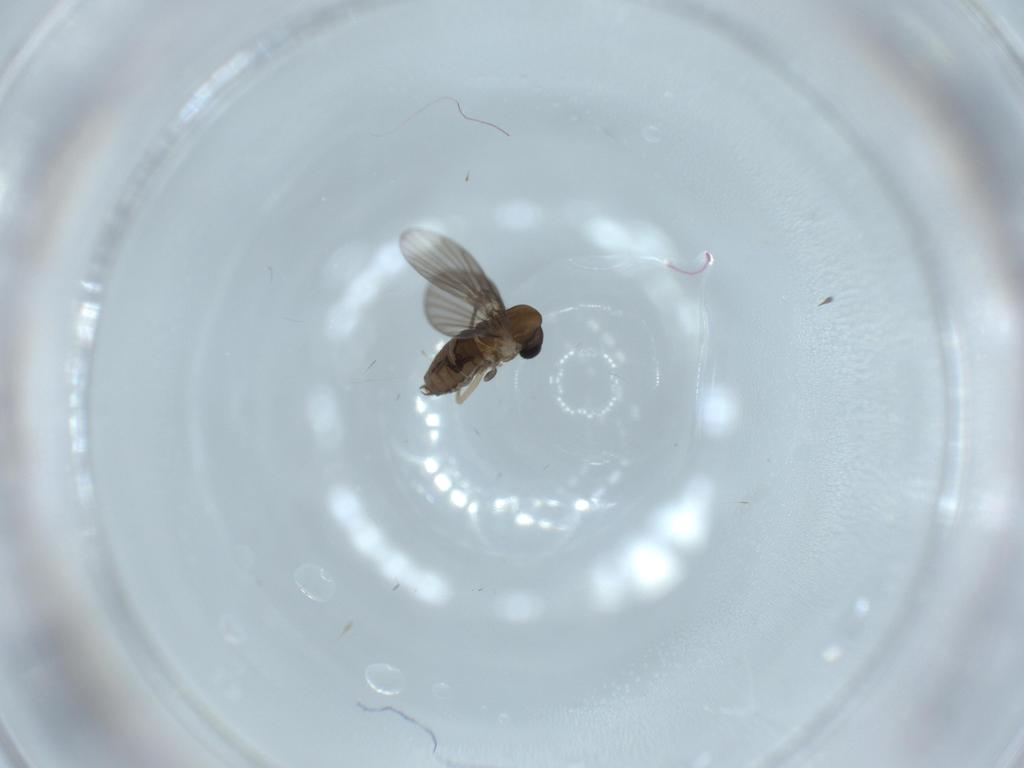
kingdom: Animalia
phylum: Arthropoda
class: Insecta
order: Diptera
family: Psychodidae
